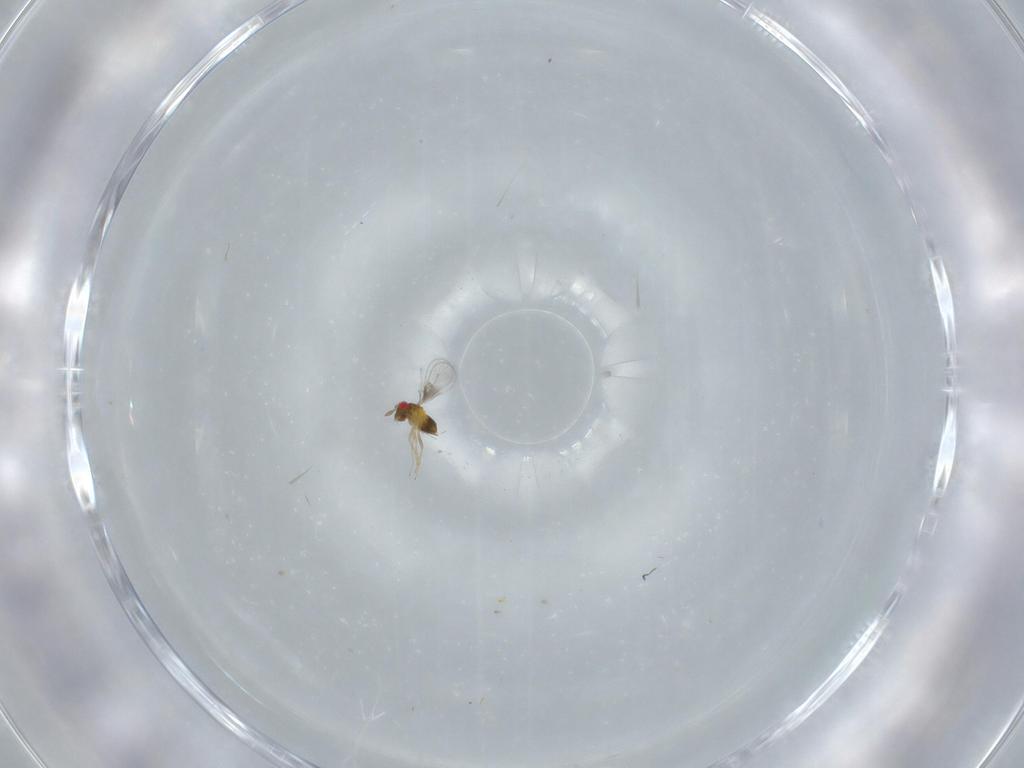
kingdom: Animalia
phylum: Arthropoda
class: Insecta
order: Hymenoptera
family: Trichogrammatidae
